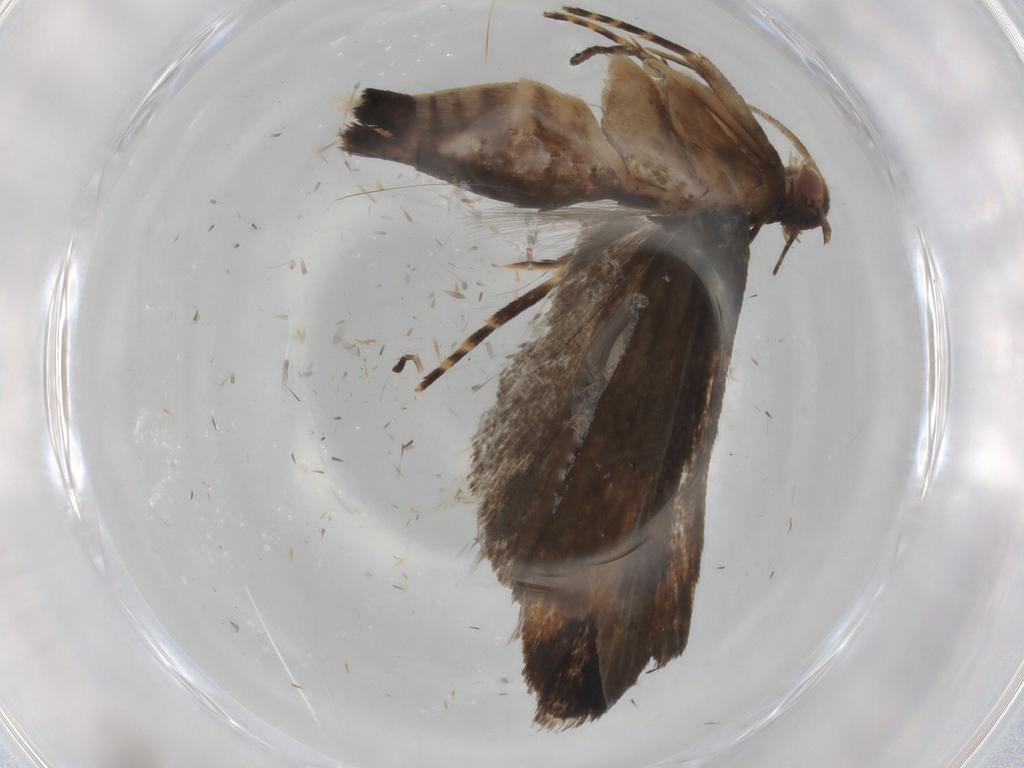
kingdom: Animalia
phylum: Arthropoda
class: Insecta
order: Lepidoptera
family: Gelechiidae
